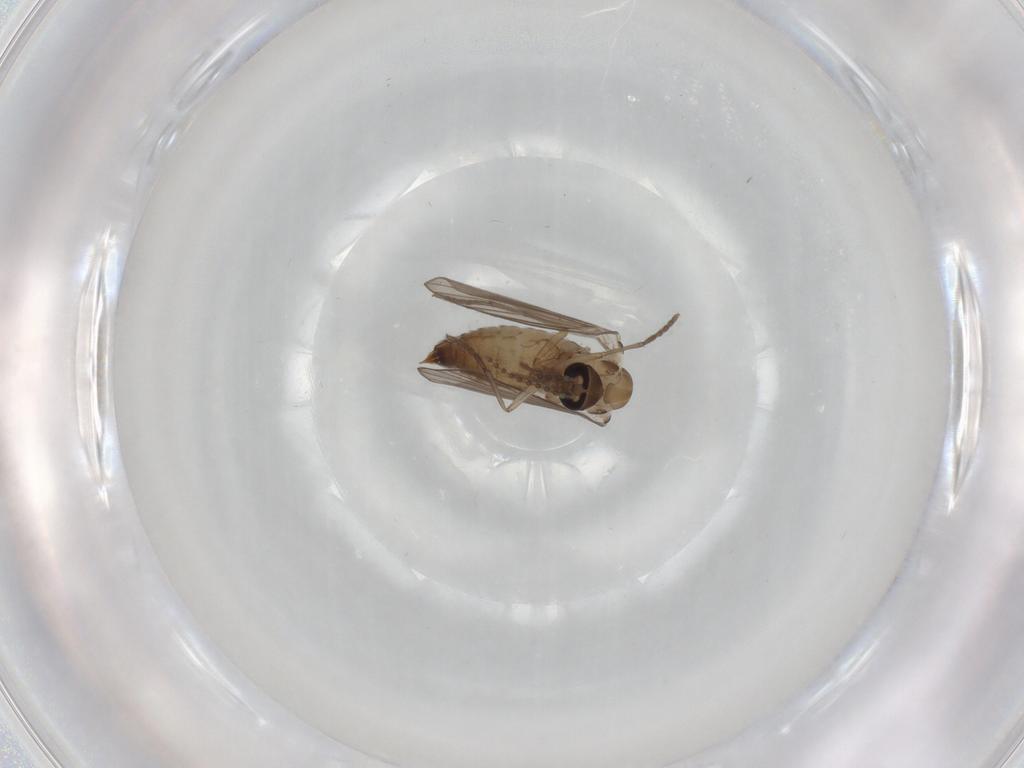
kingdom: Animalia
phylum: Arthropoda
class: Insecta
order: Diptera
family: Psychodidae
